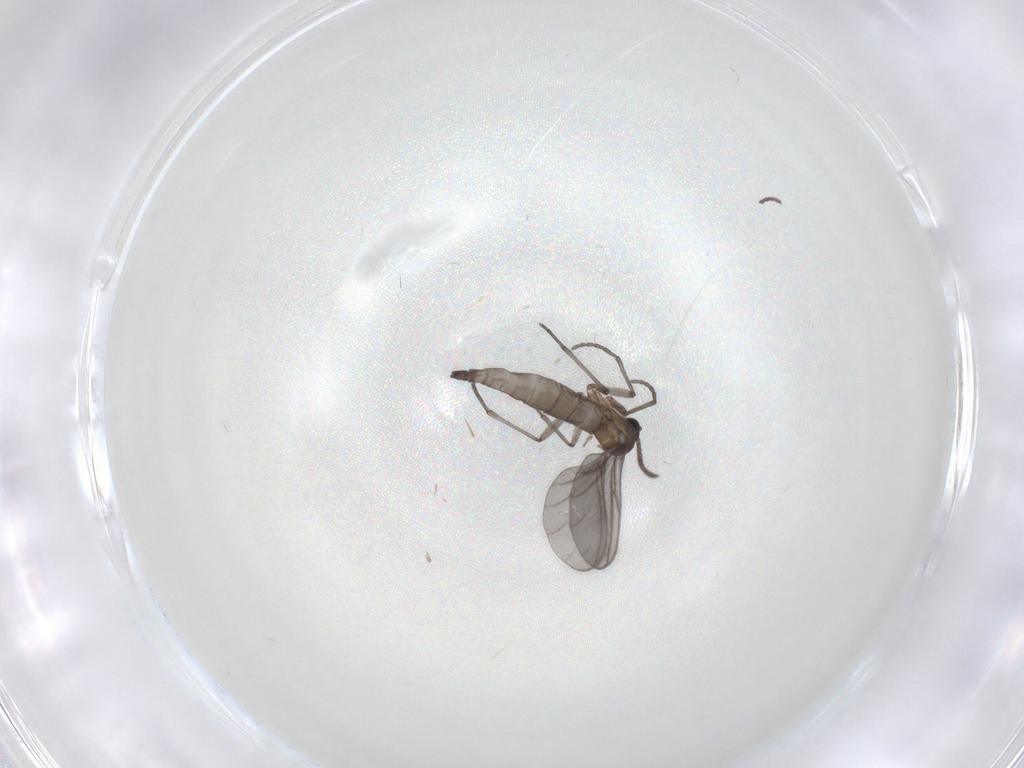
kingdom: Animalia
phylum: Arthropoda
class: Insecta
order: Diptera
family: Sciaridae
